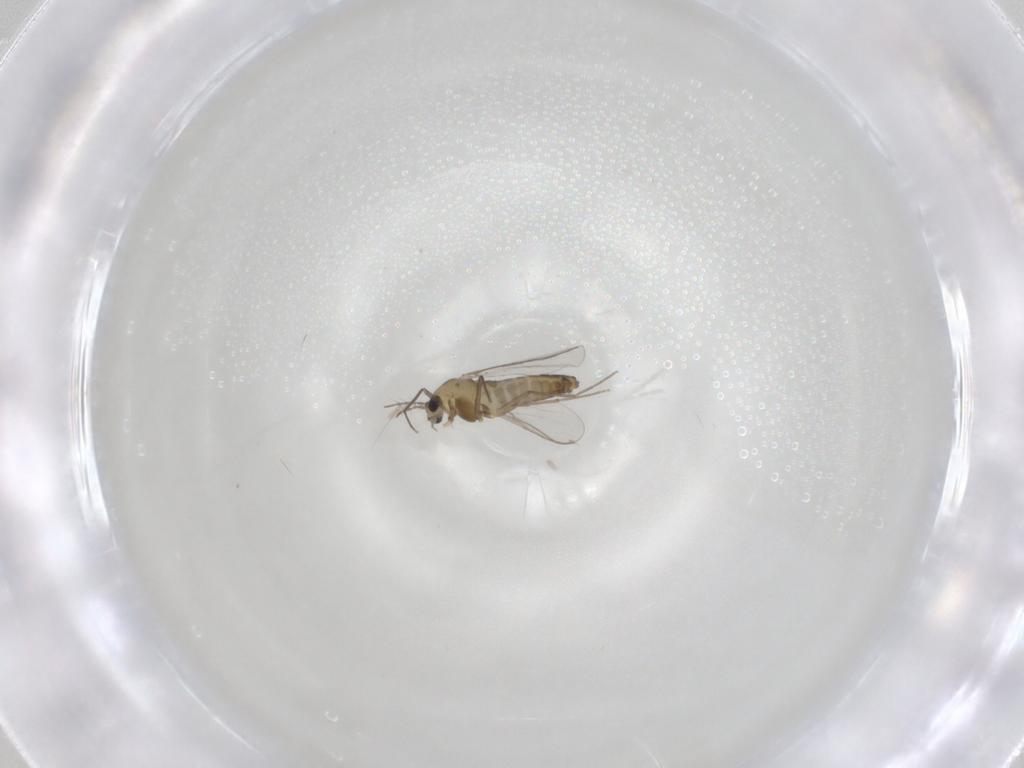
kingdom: Animalia
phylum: Arthropoda
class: Insecta
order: Diptera
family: Chironomidae
